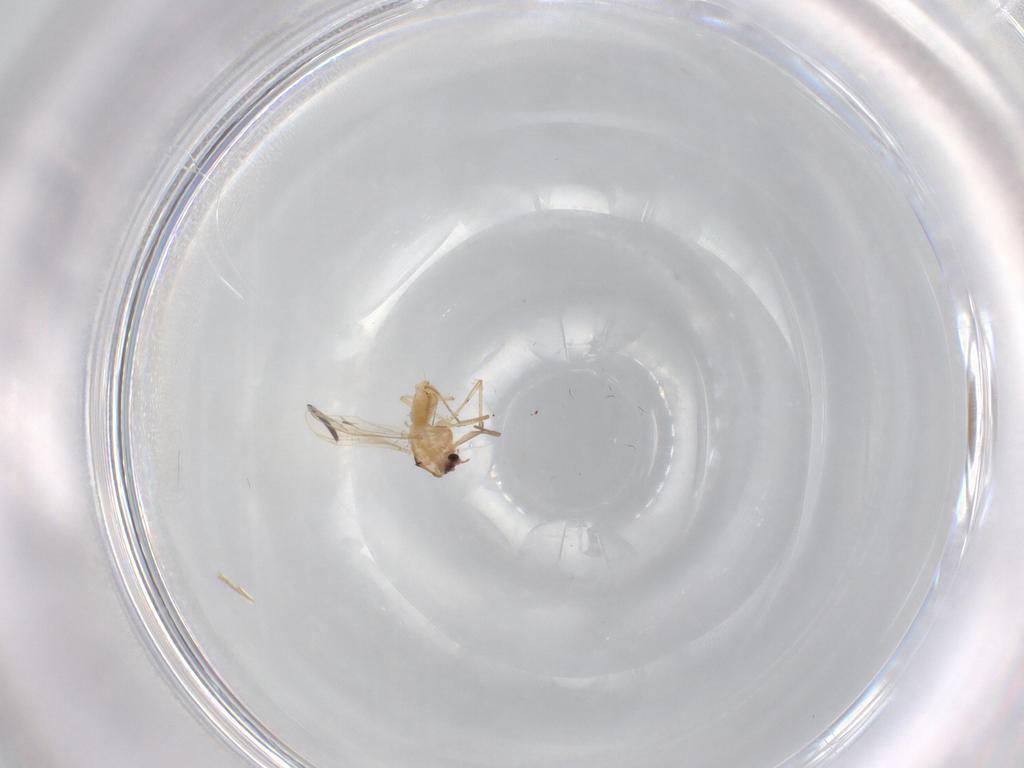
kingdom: Animalia
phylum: Arthropoda
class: Insecta
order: Diptera
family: Chironomidae
